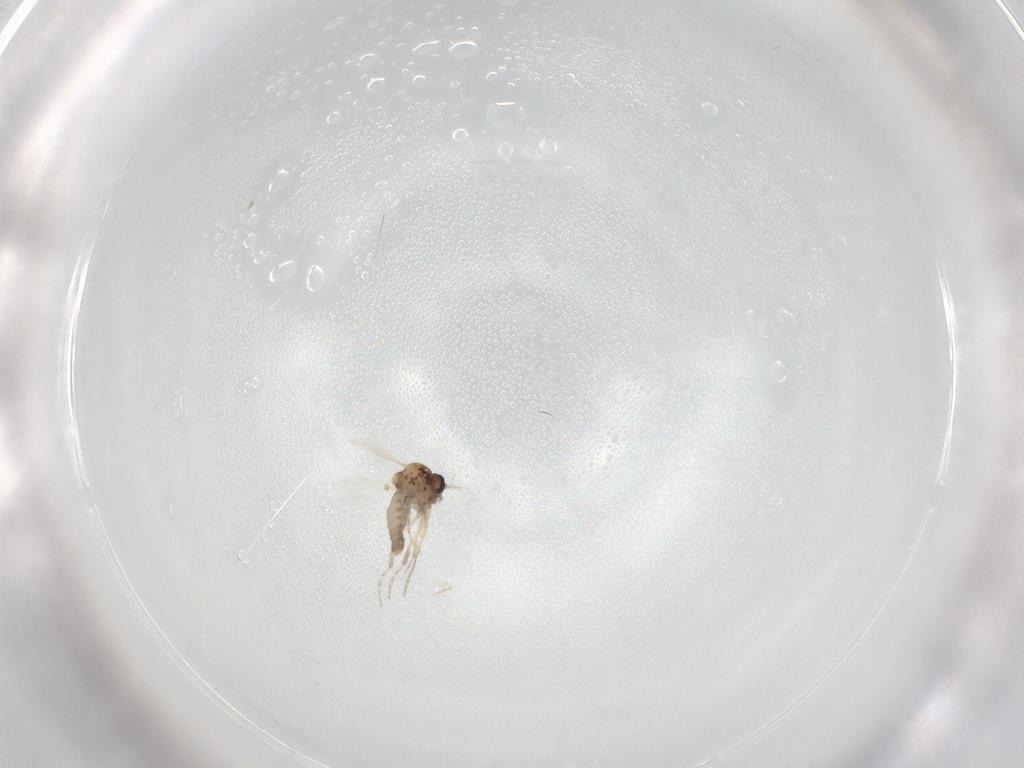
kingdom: Animalia
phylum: Arthropoda
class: Insecta
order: Diptera
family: Ceratopogonidae
